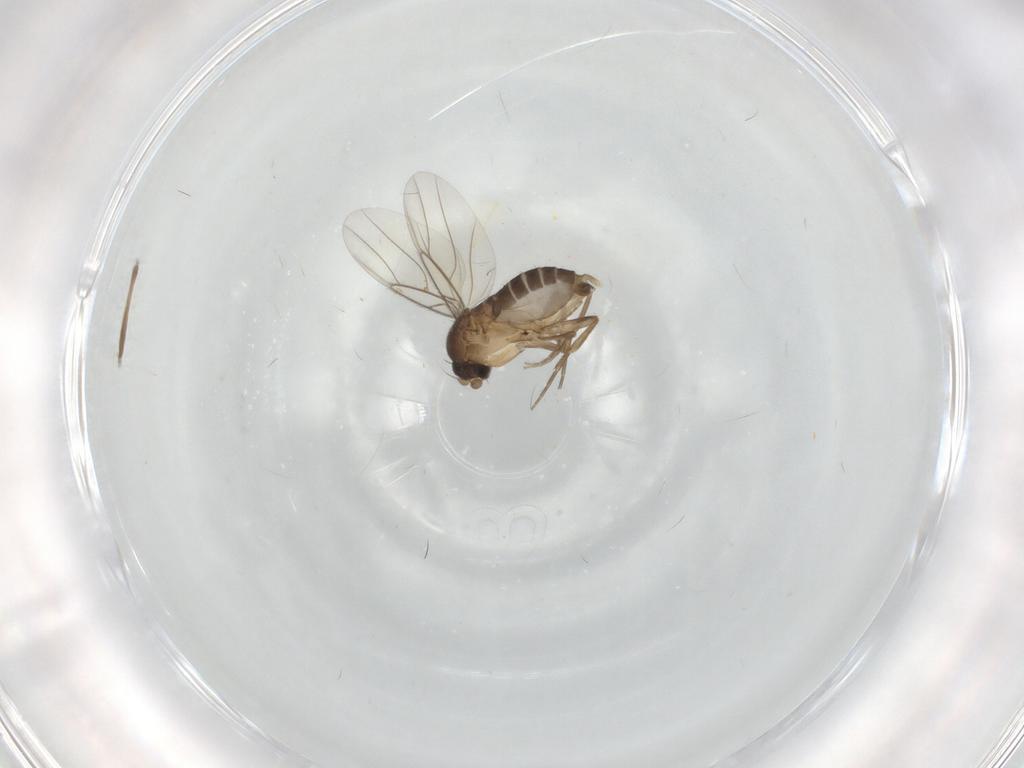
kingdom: Animalia
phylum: Arthropoda
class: Insecta
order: Diptera
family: Phoridae
